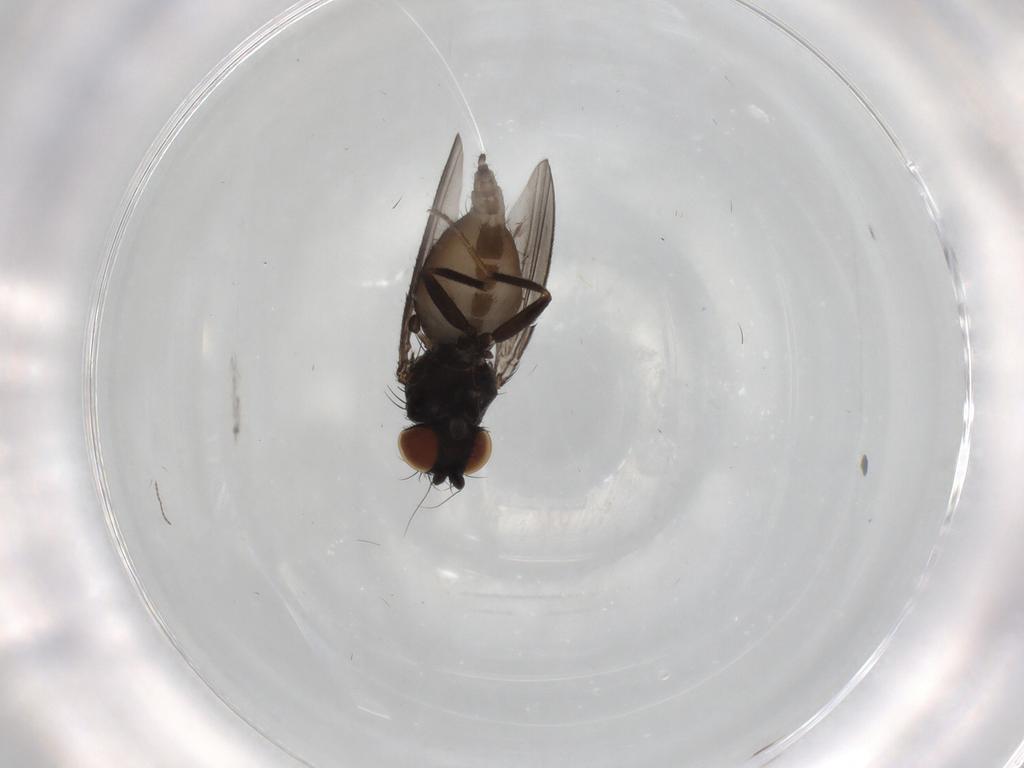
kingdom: Animalia
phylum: Arthropoda
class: Insecta
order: Diptera
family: Milichiidae
